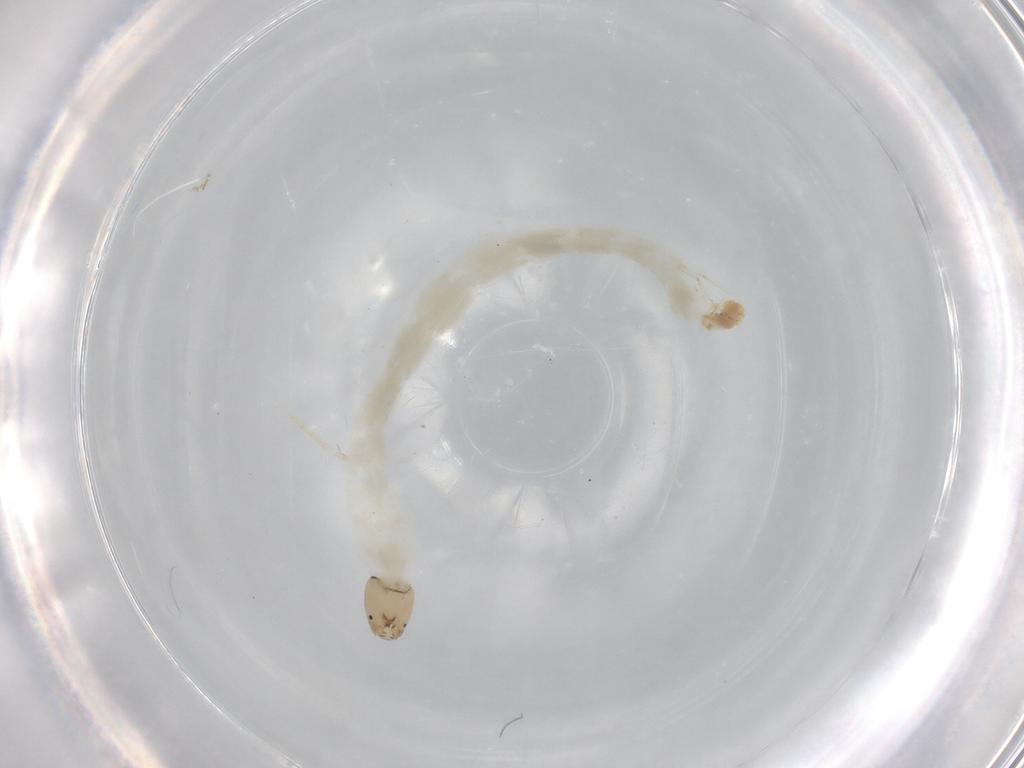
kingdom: Animalia
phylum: Arthropoda
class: Insecta
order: Diptera
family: Chironomidae
